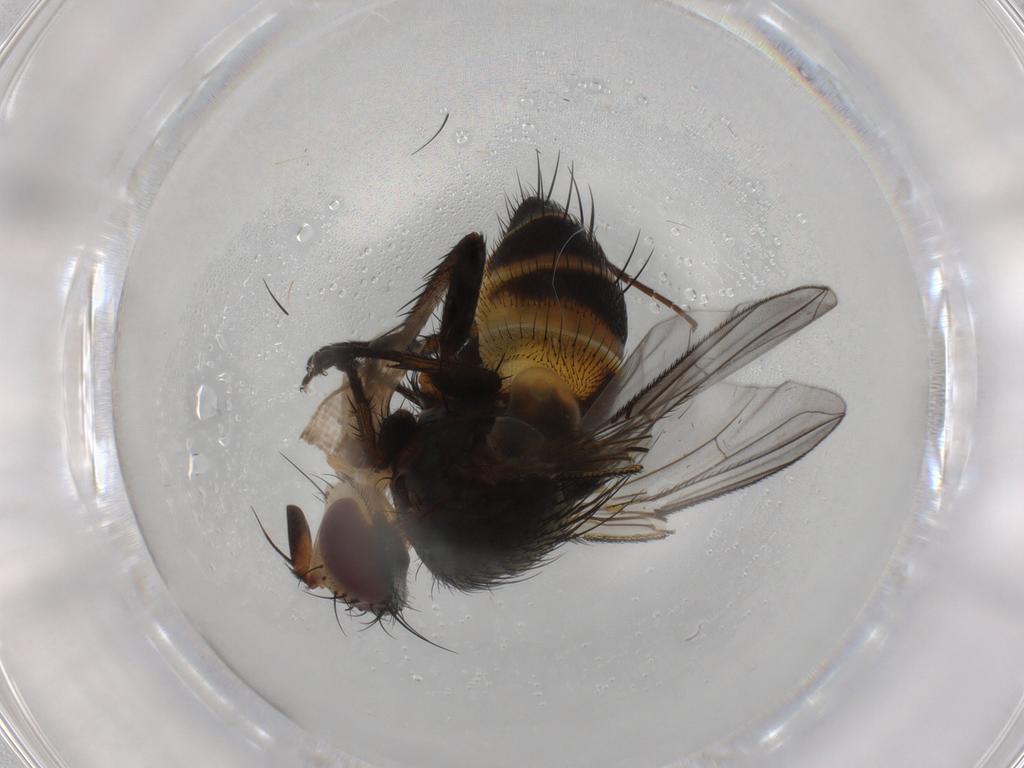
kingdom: Animalia
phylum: Arthropoda
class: Insecta
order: Diptera
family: Tachinidae
